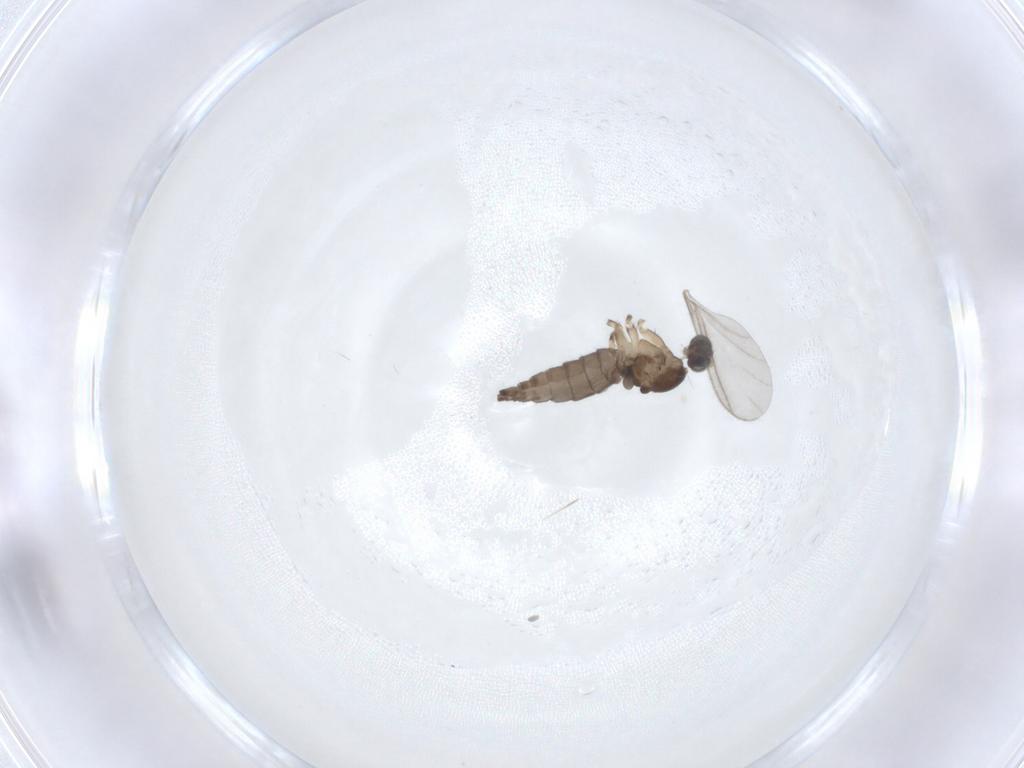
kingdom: Animalia
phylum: Arthropoda
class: Insecta
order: Diptera
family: Sciaridae
